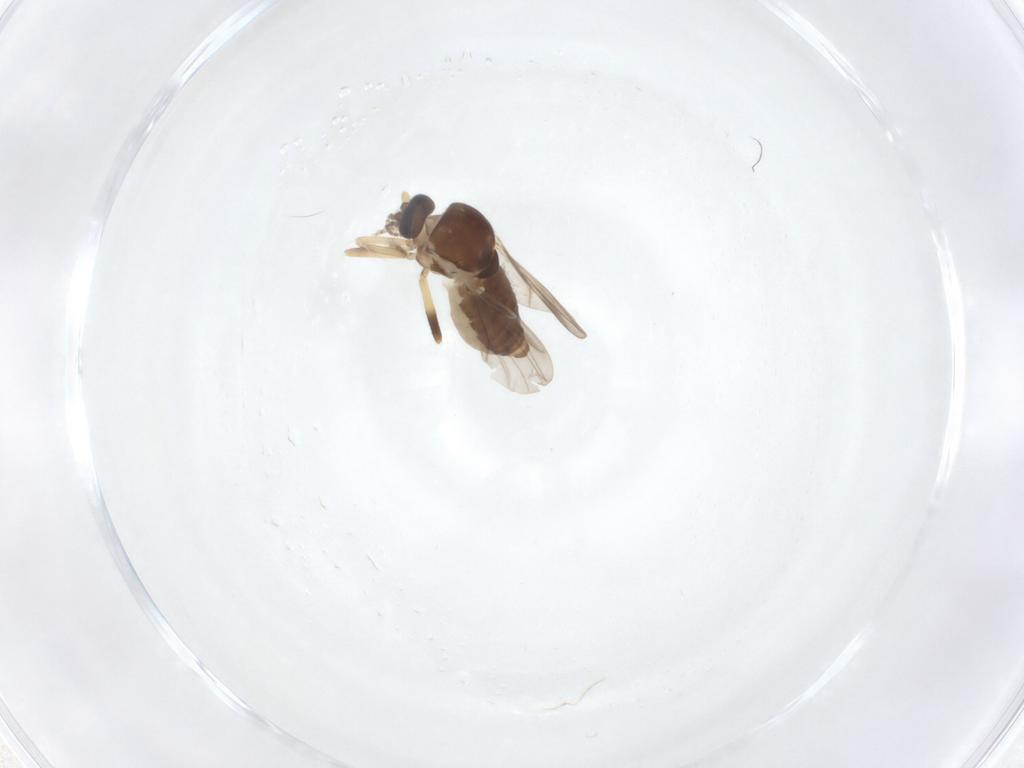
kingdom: Animalia
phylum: Arthropoda
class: Insecta
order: Diptera
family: Ceratopogonidae
